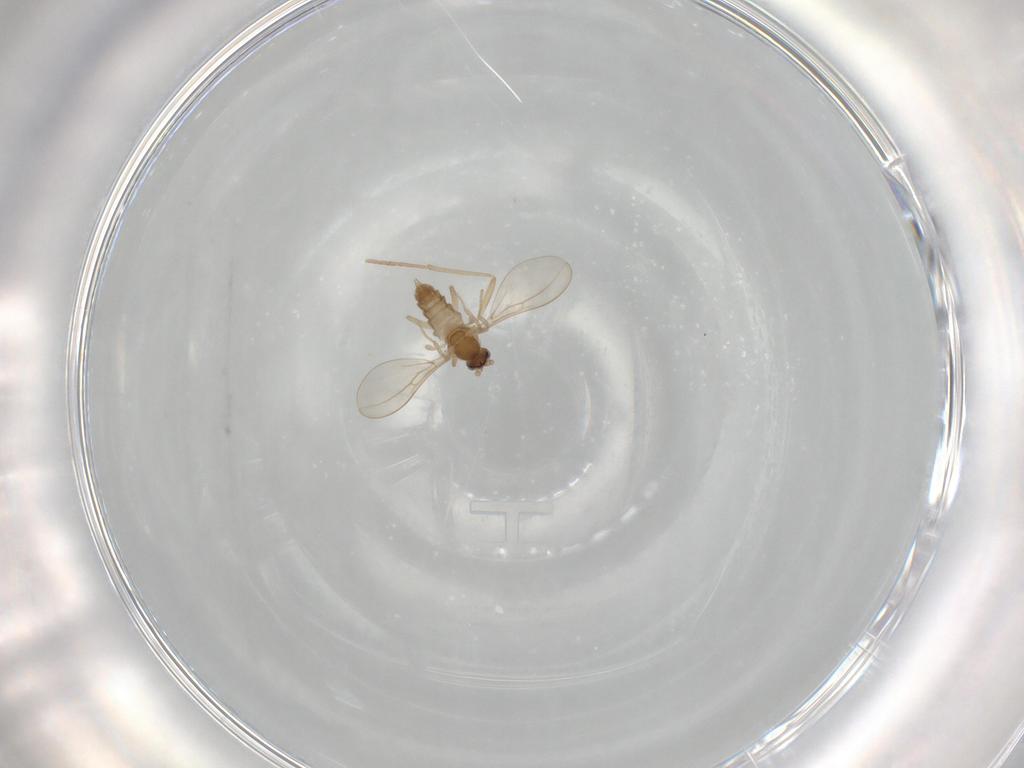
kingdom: Animalia
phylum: Arthropoda
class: Insecta
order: Diptera
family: Cecidomyiidae
